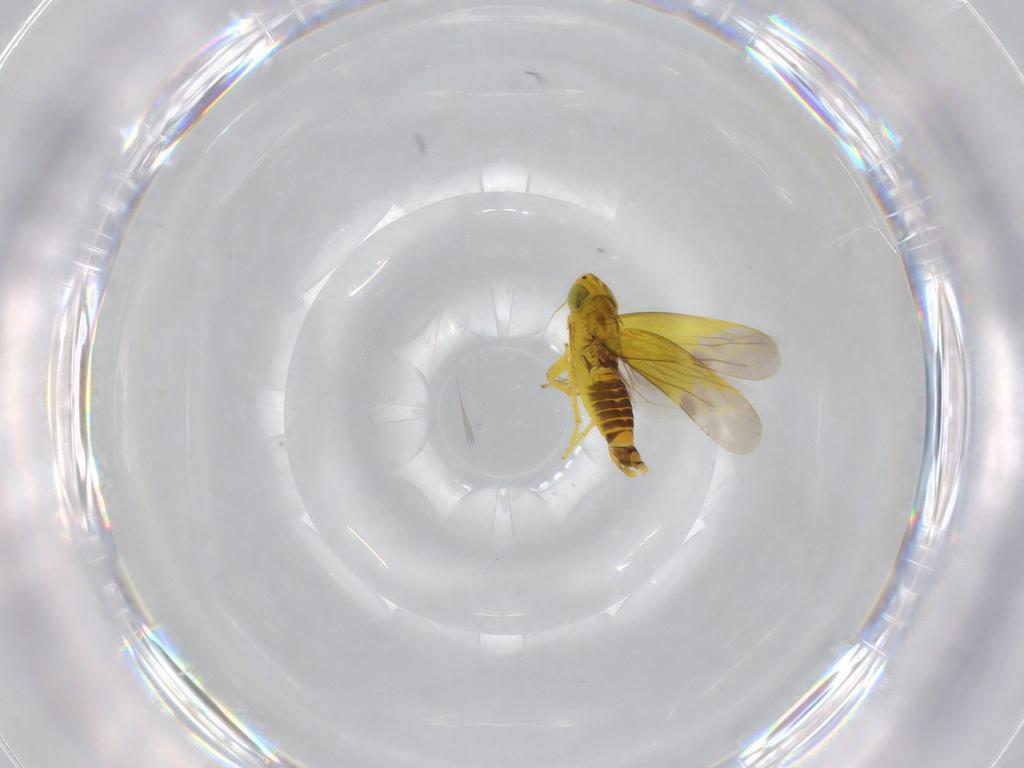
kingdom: Animalia
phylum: Arthropoda
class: Insecta
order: Hemiptera
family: Cicadellidae
